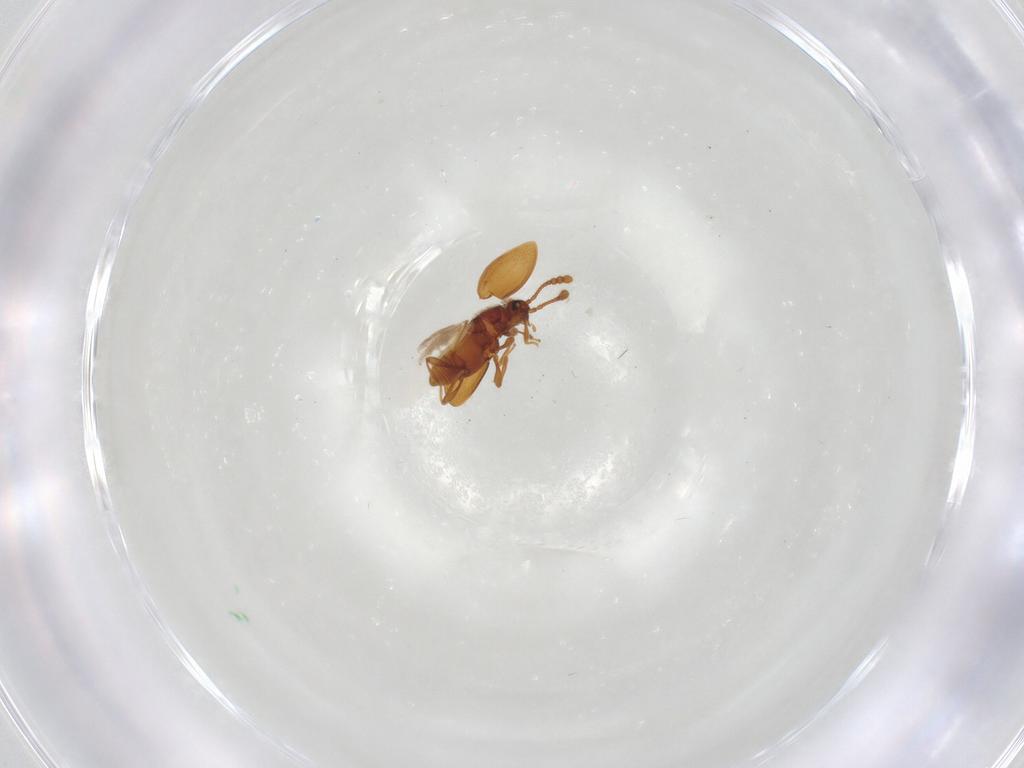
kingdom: Animalia
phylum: Arthropoda
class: Insecta
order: Coleoptera
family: Staphylinidae
